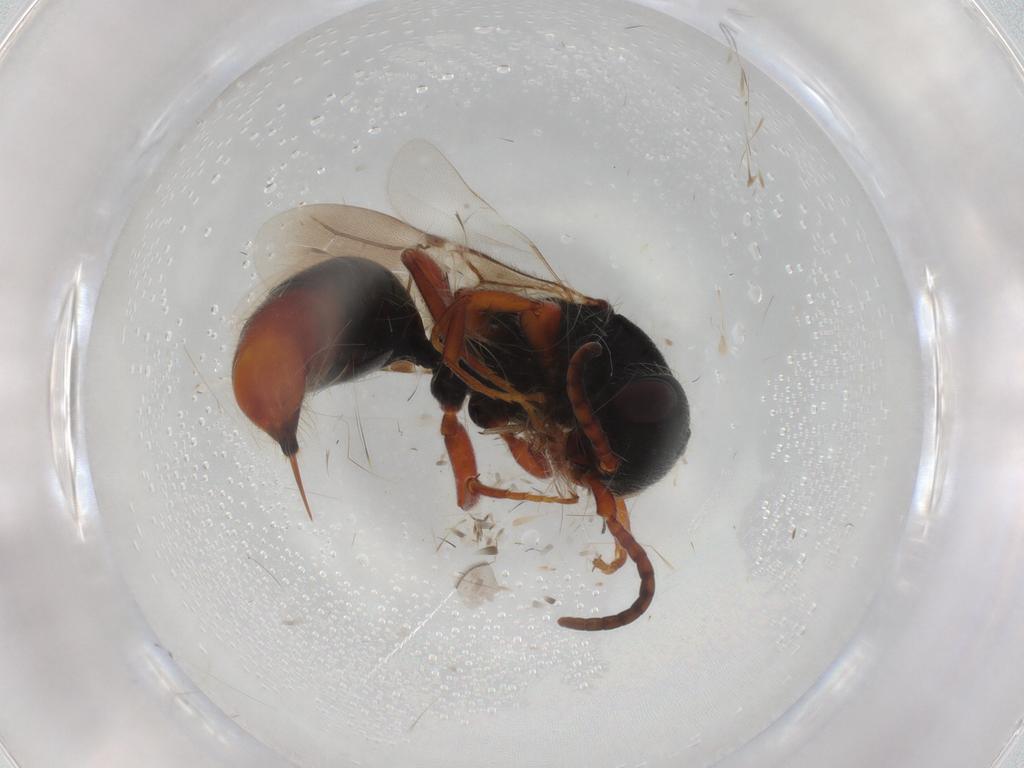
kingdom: Animalia
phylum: Arthropoda
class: Insecta
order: Hymenoptera
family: Bethylidae
